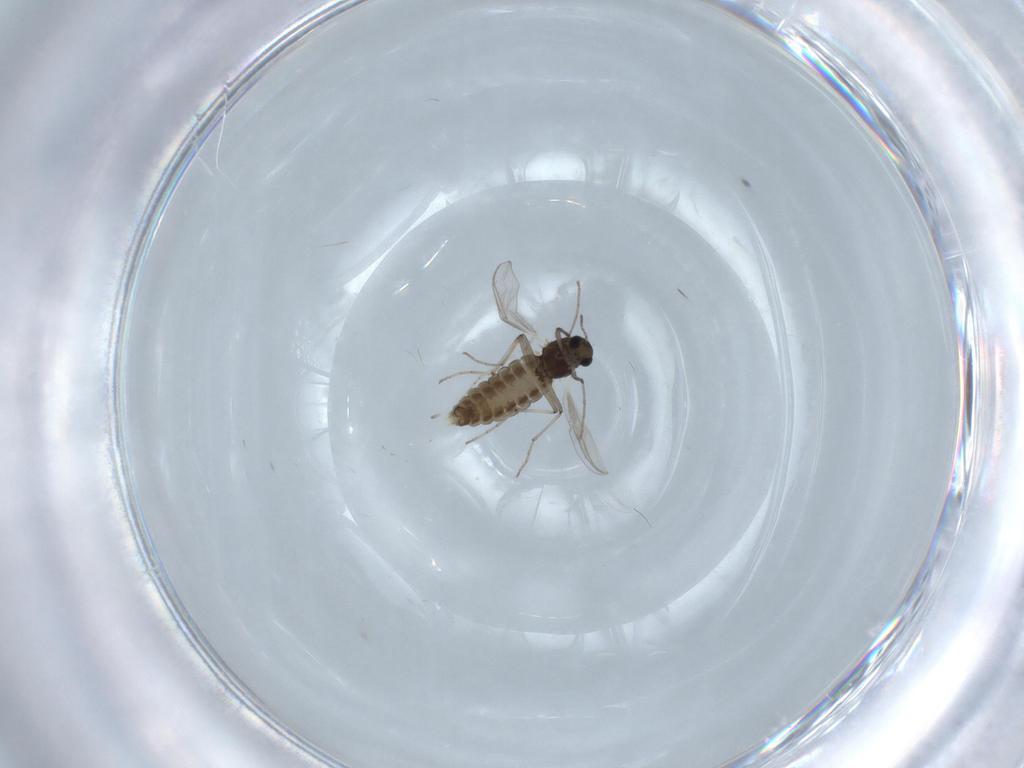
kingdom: Animalia
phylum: Arthropoda
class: Insecta
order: Diptera
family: Chironomidae
